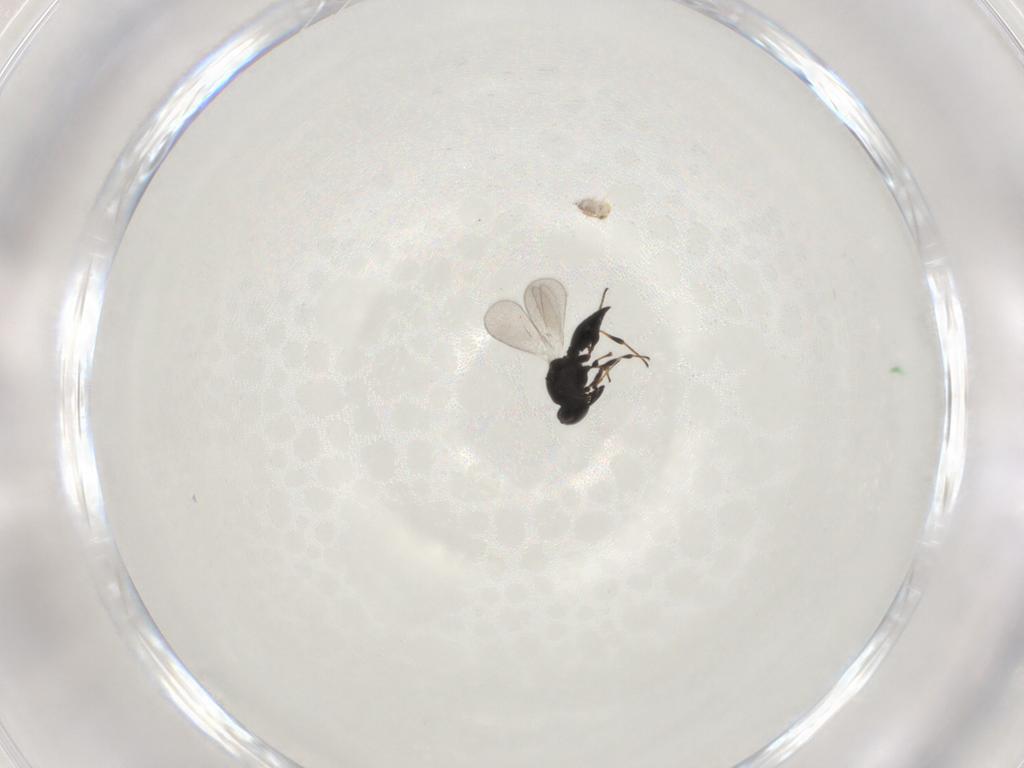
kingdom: Animalia
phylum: Arthropoda
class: Insecta
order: Hymenoptera
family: Platygastridae
